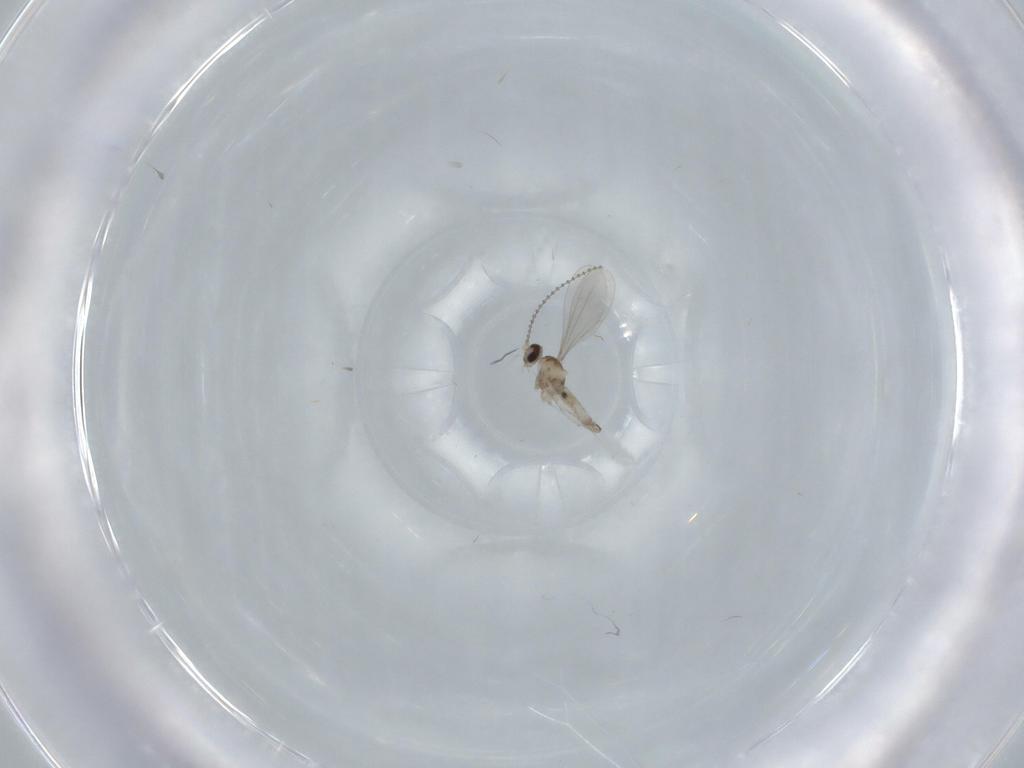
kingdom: Animalia
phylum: Arthropoda
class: Insecta
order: Diptera
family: Cecidomyiidae
